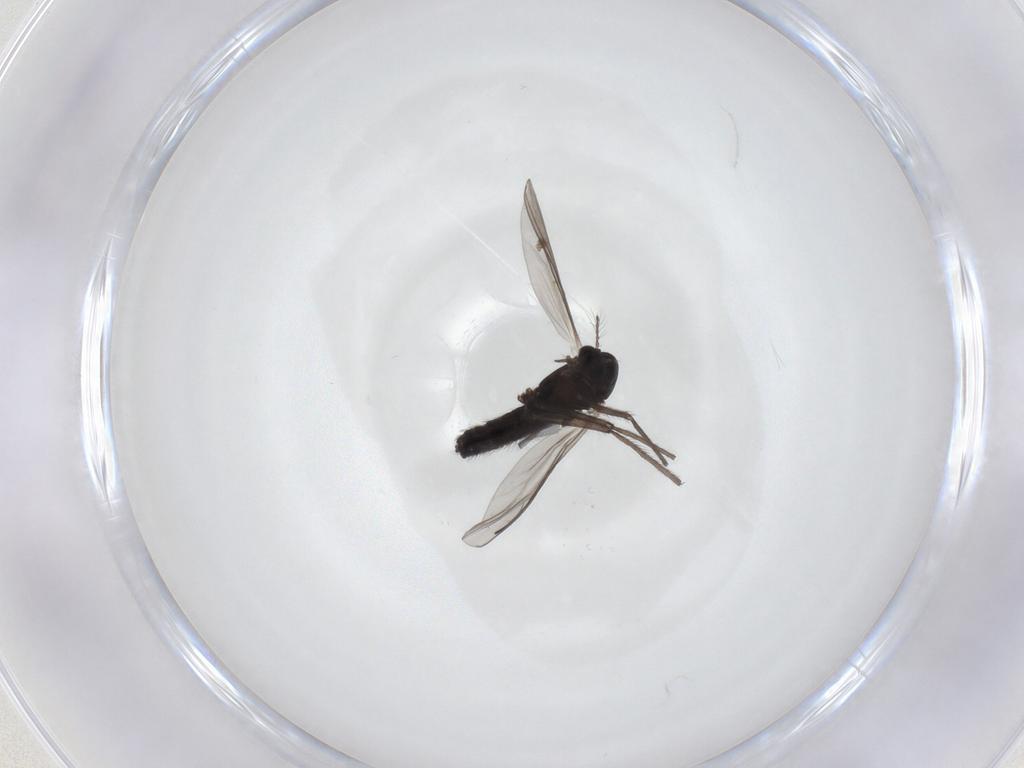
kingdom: Animalia
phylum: Arthropoda
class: Insecta
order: Diptera
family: Chironomidae
